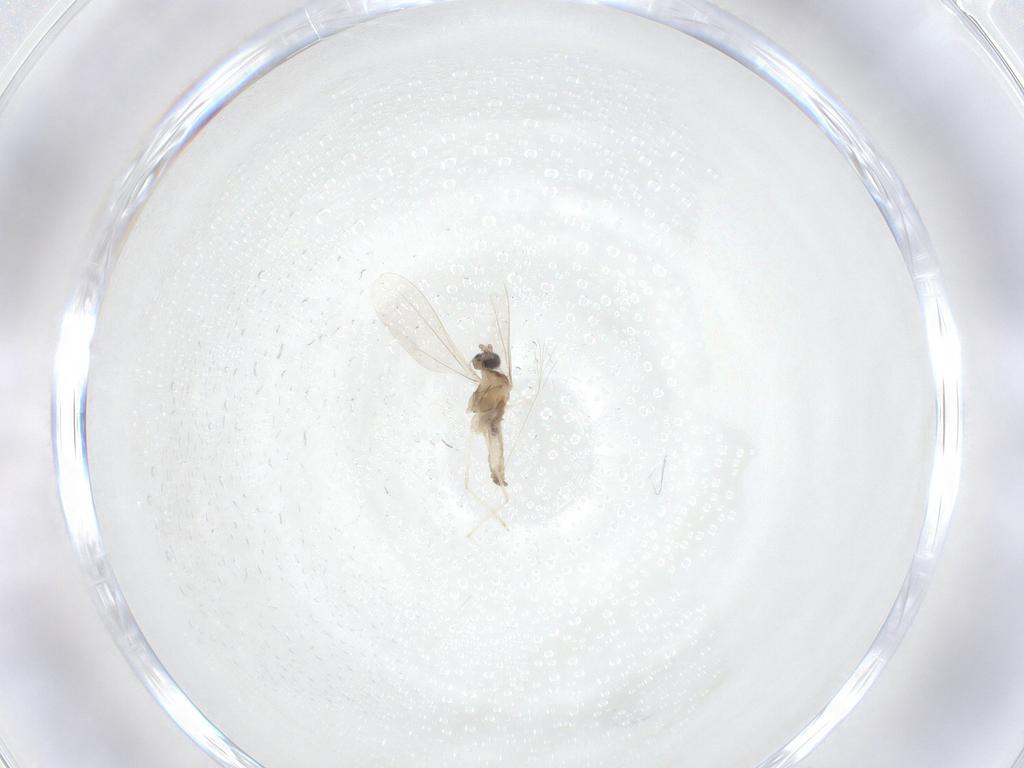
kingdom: Animalia
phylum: Arthropoda
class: Insecta
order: Diptera
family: Cecidomyiidae
